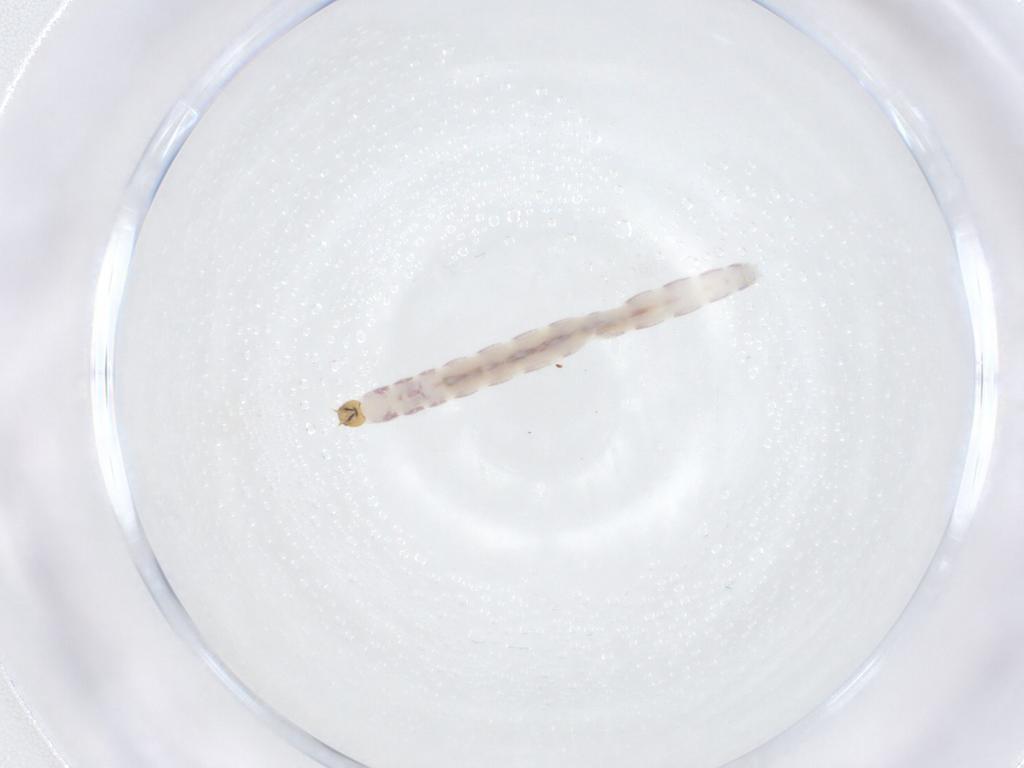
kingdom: Animalia
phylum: Arthropoda
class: Insecta
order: Diptera
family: Chironomidae
